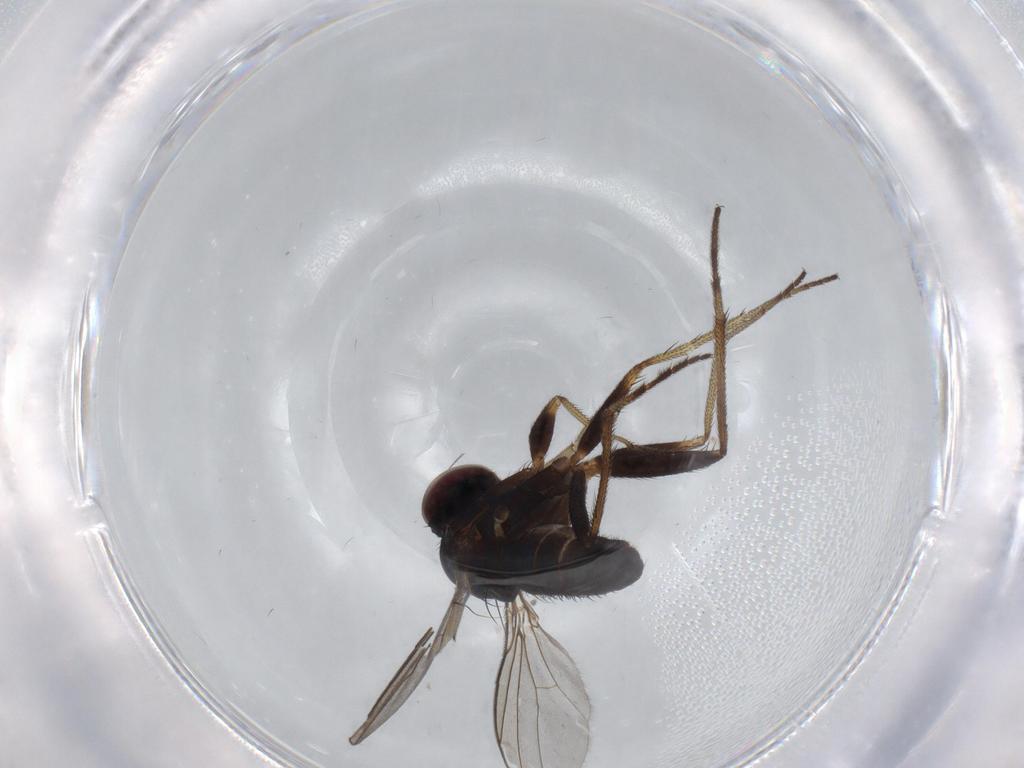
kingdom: Animalia
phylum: Arthropoda
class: Insecta
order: Diptera
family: Dolichopodidae
